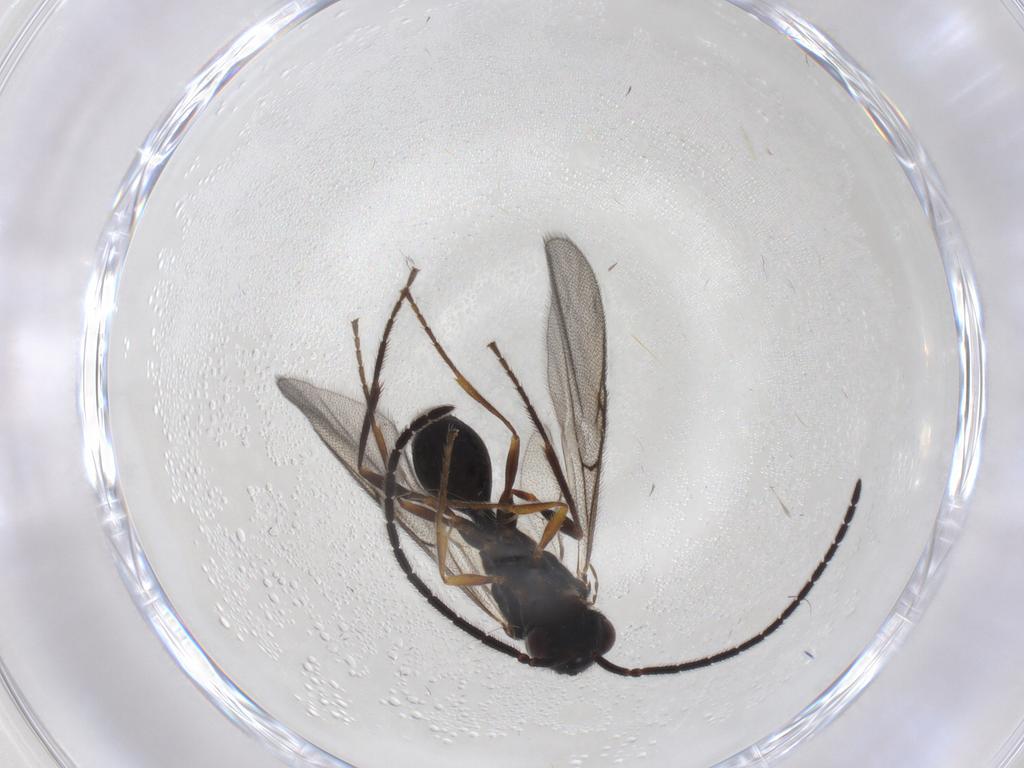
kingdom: Animalia
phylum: Arthropoda
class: Insecta
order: Hymenoptera
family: Diapriidae
